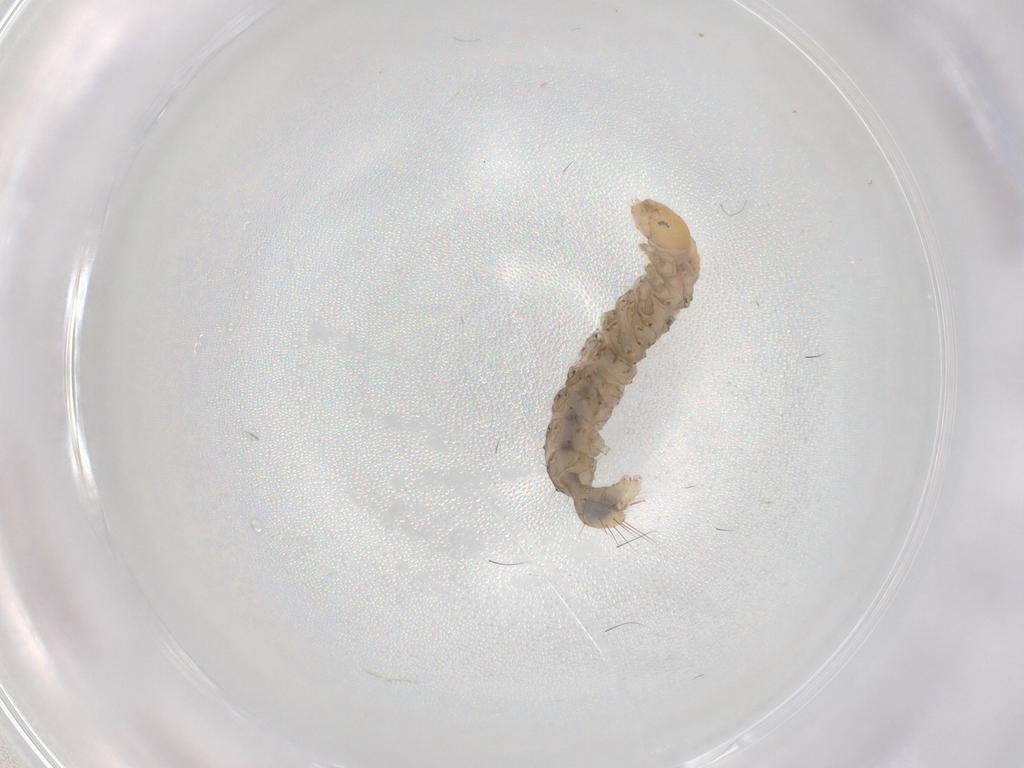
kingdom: Animalia
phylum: Arthropoda
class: Insecta
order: Lepidoptera
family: Gelechiidae
